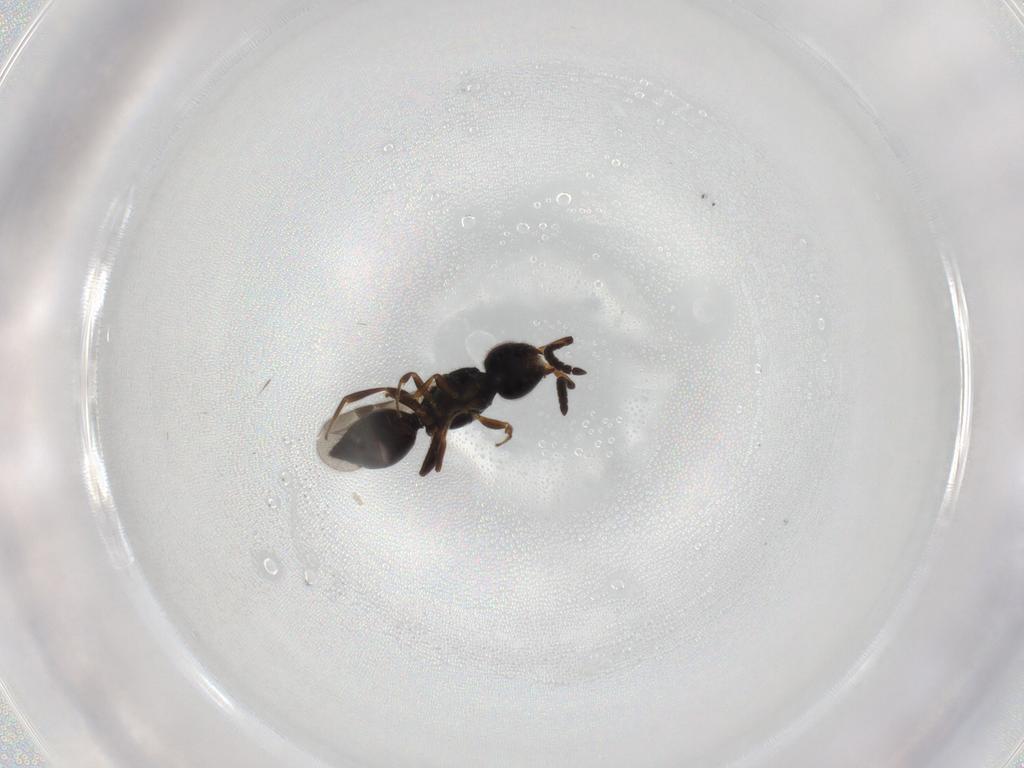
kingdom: Animalia
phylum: Arthropoda
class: Insecta
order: Hymenoptera
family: Megaspilidae
